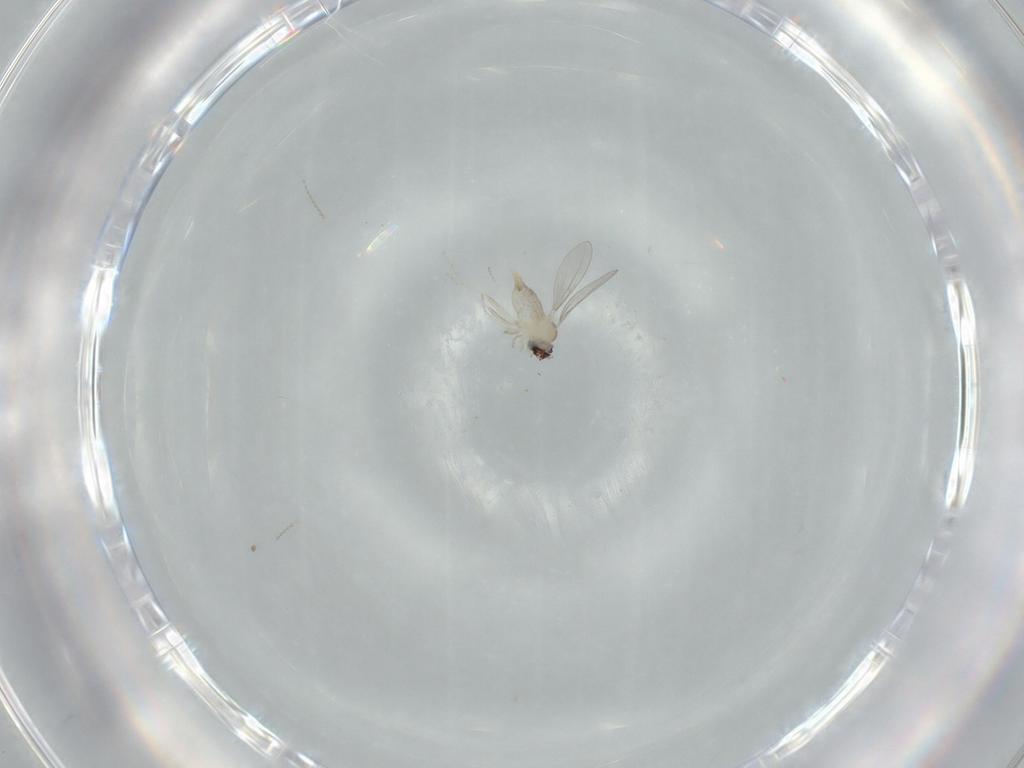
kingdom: Animalia
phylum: Arthropoda
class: Insecta
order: Diptera
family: Cecidomyiidae
